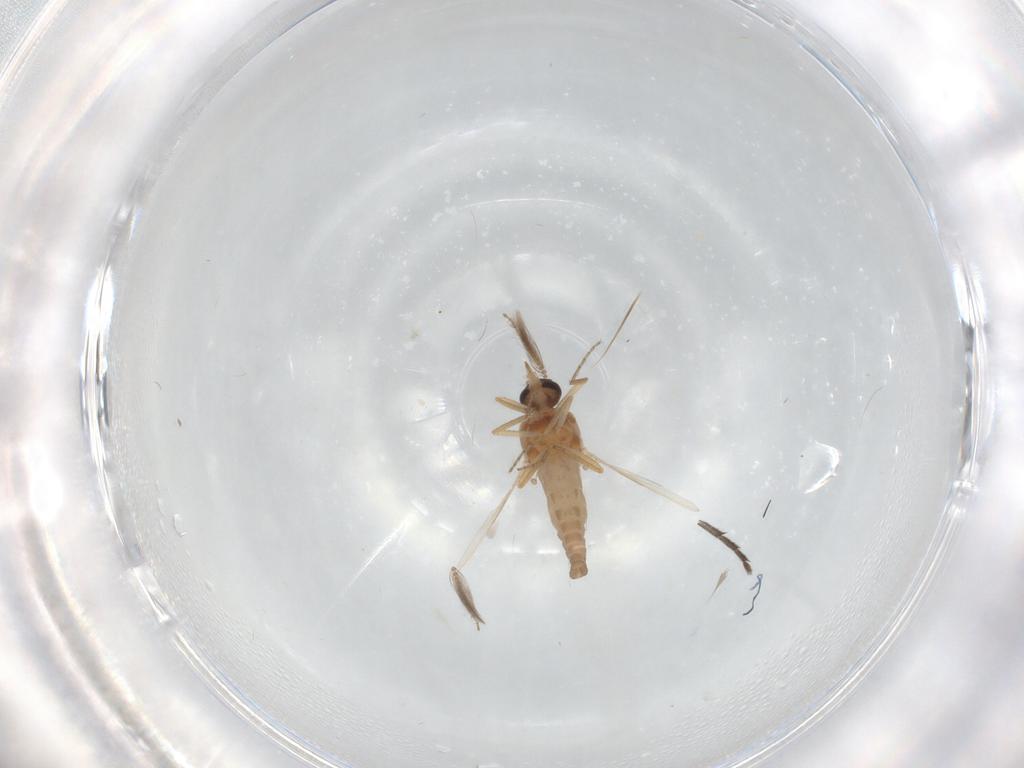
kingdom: Animalia
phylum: Arthropoda
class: Insecta
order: Diptera
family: Ceratopogonidae
